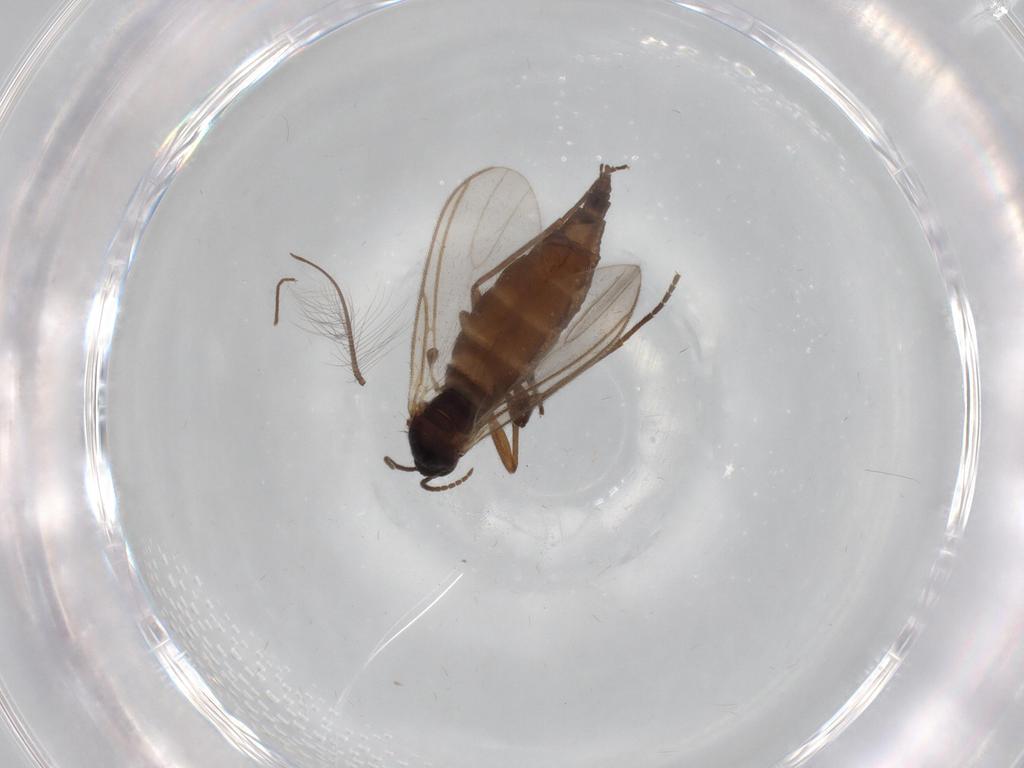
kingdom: Animalia
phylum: Arthropoda
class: Insecta
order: Diptera
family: Sciaridae
